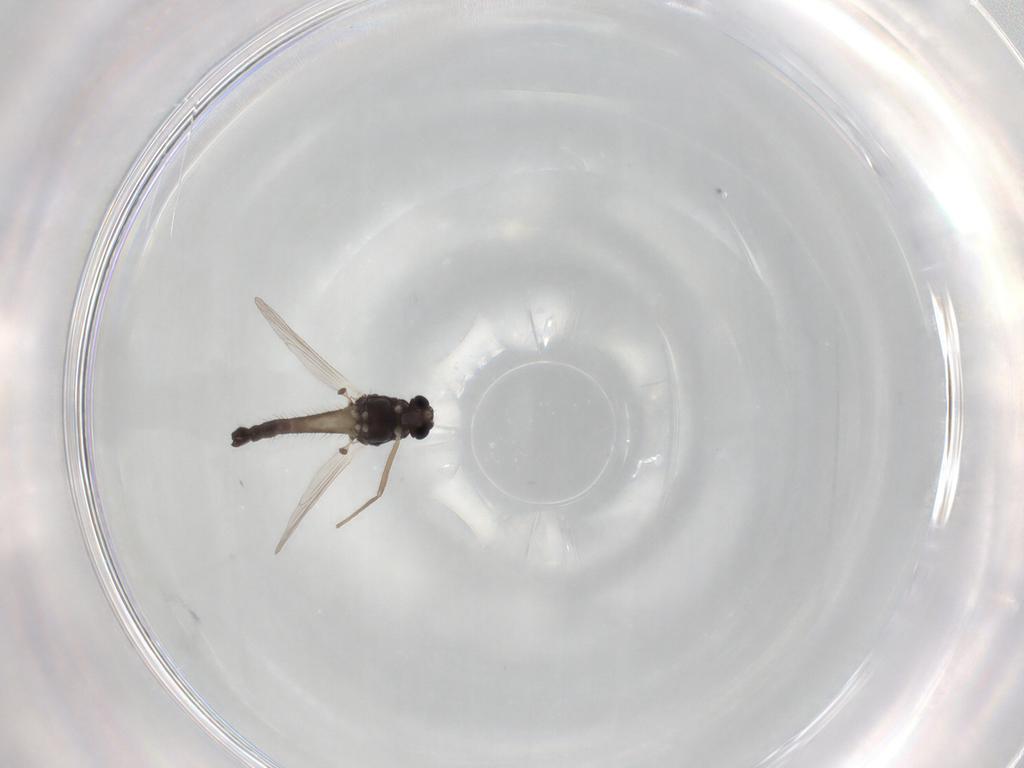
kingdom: Animalia
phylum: Arthropoda
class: Insecta
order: Diptera
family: Chironomidae
